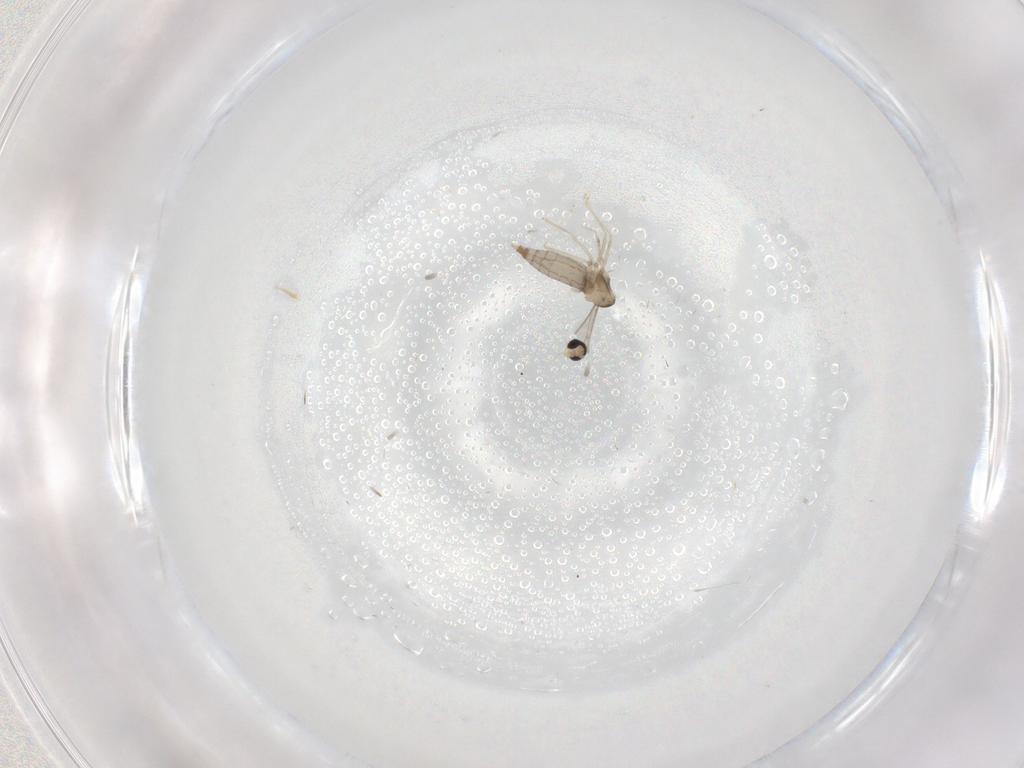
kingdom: Animalia
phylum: Arthropoda
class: Insecta
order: Diptera
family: Cecidomyiidae
